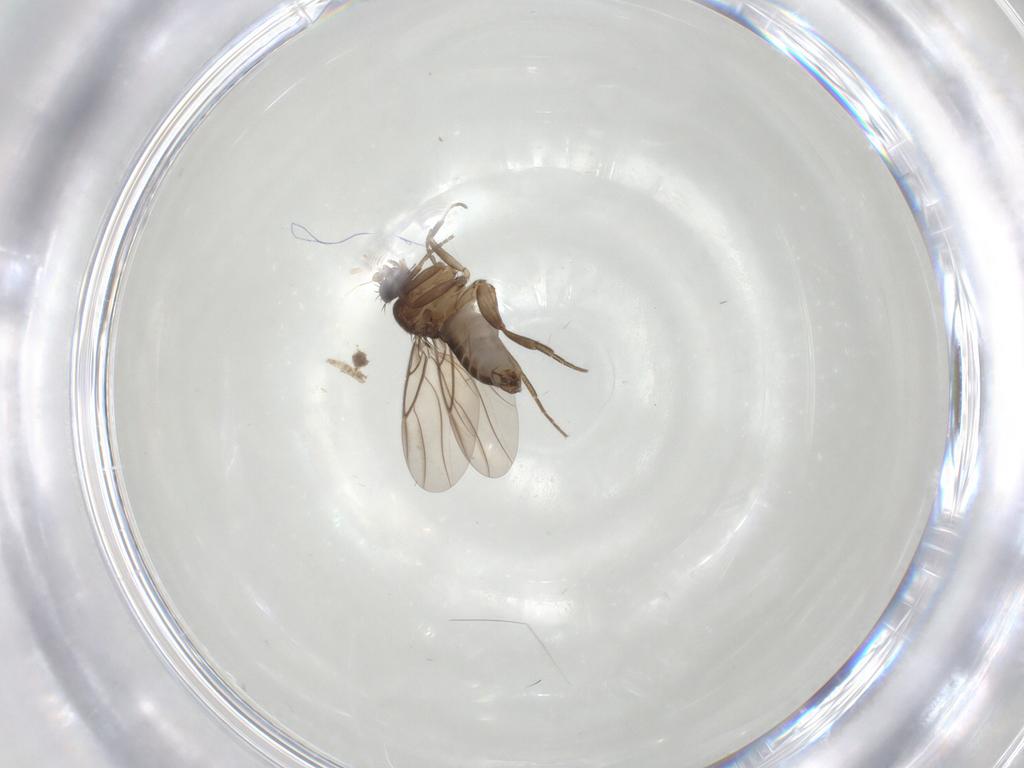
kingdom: Animalia
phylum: Arthropoda
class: Insecta
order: Diptera
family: Phoridae
